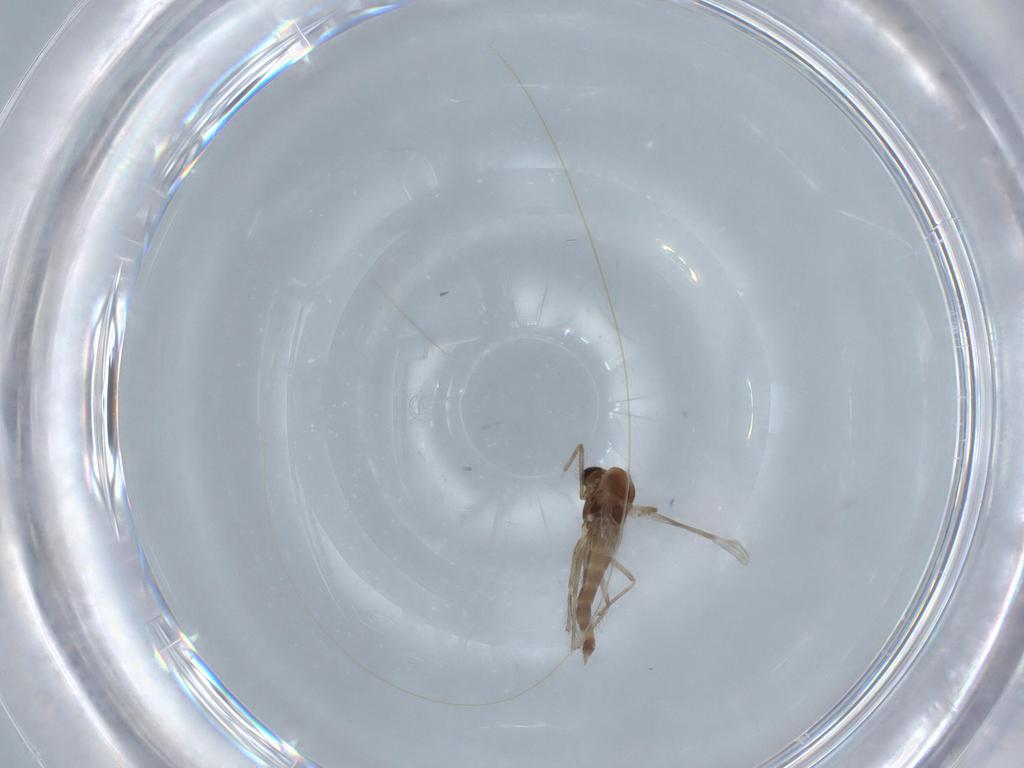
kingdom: Animalia
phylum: Arthropoda
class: Insecta
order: Diptera
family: Chironomidae
